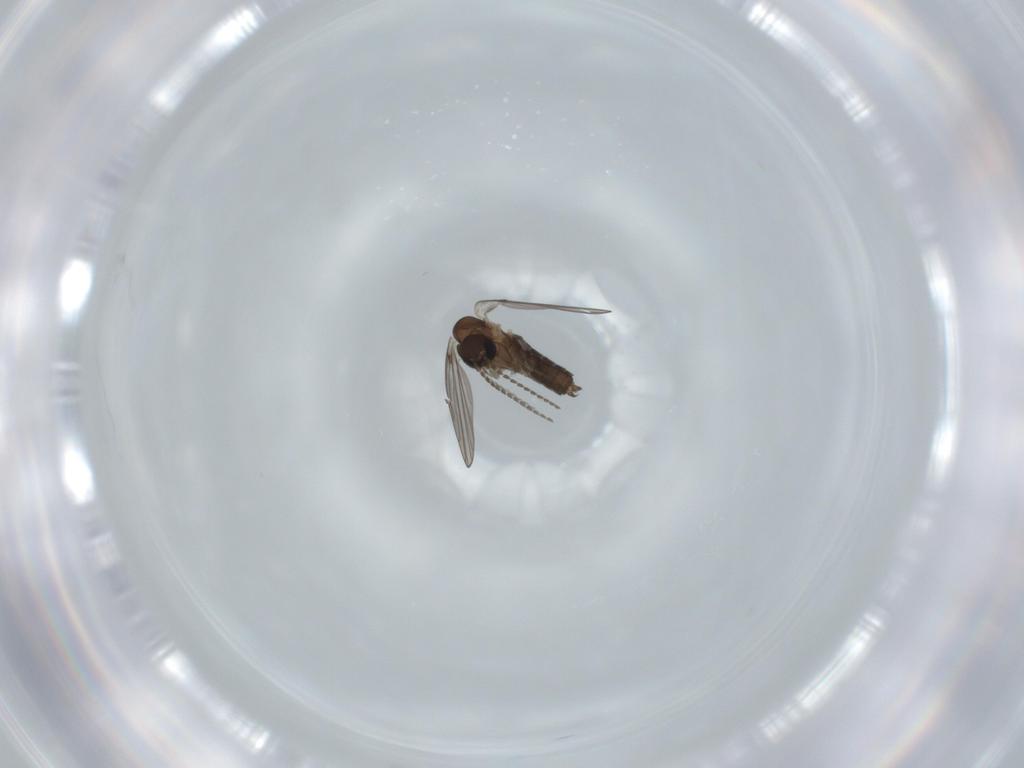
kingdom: Animalia
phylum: Arthropoda
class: Insecta
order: Diptera
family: Psychodidae
